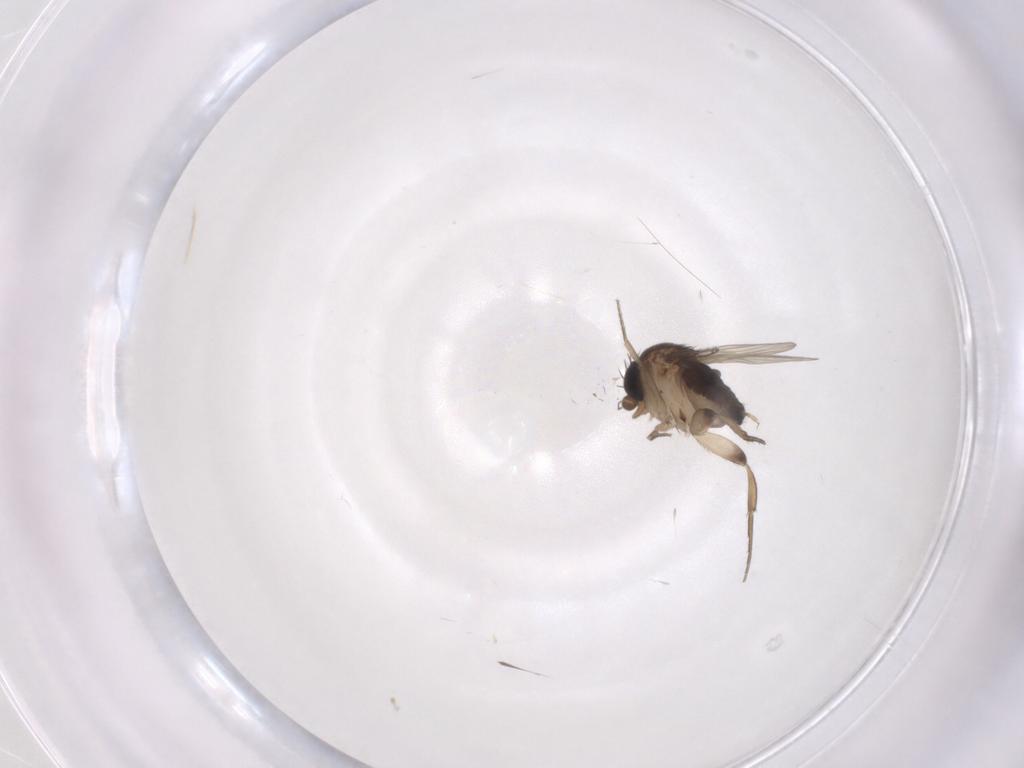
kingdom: Animalia
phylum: Arthropoda
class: Insecta
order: Diptera
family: Phoridae
